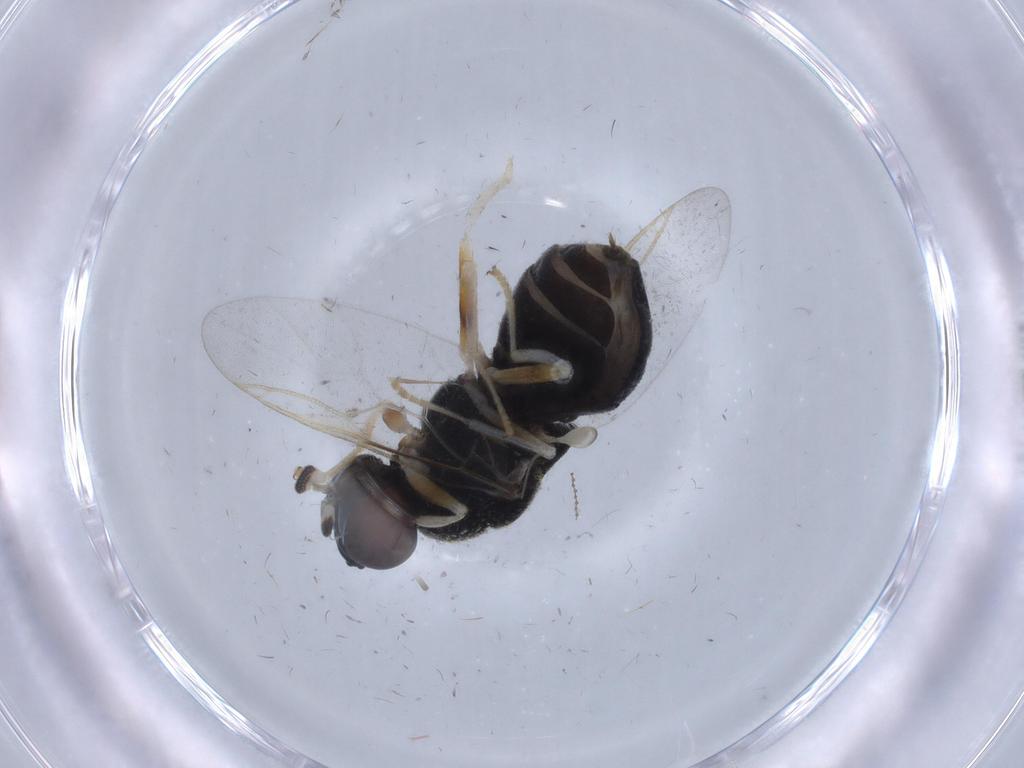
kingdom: Animalia
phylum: Arthropoda
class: Insecta
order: Diptera
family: Stratiomyidae
